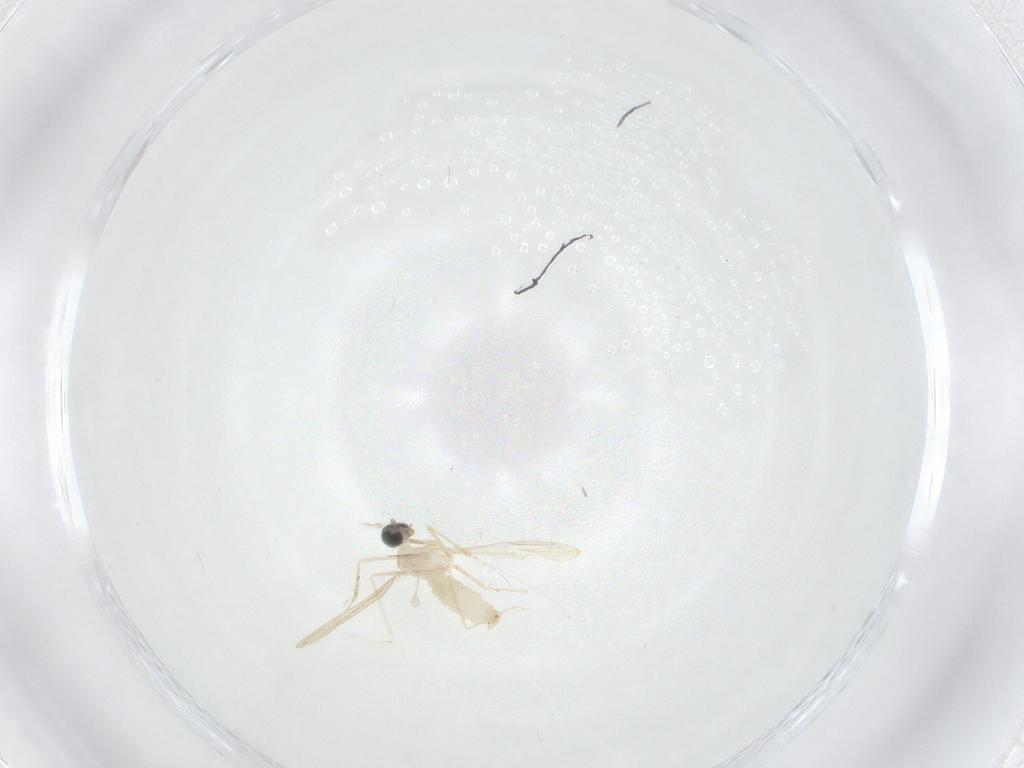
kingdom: Animalia
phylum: Arthropoda
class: Insecta
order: Diptera
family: Cecidomyiidae
